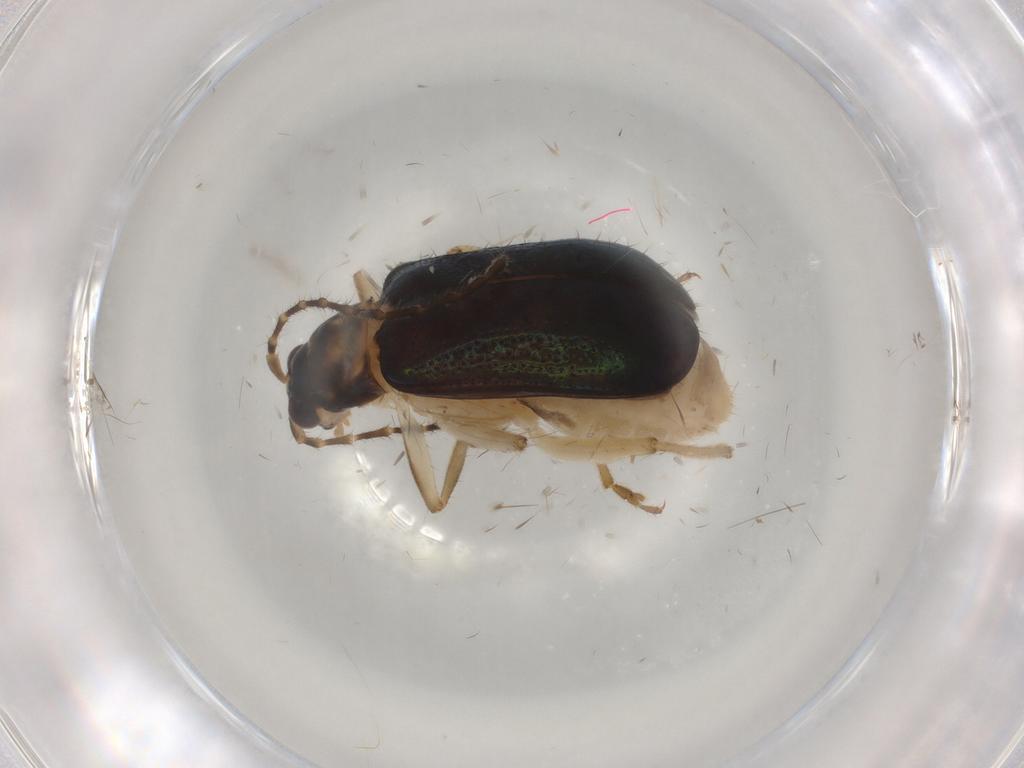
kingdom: Animalia
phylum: Arthropoda
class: Insecta
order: Coleoptera
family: Chrysomelidae
